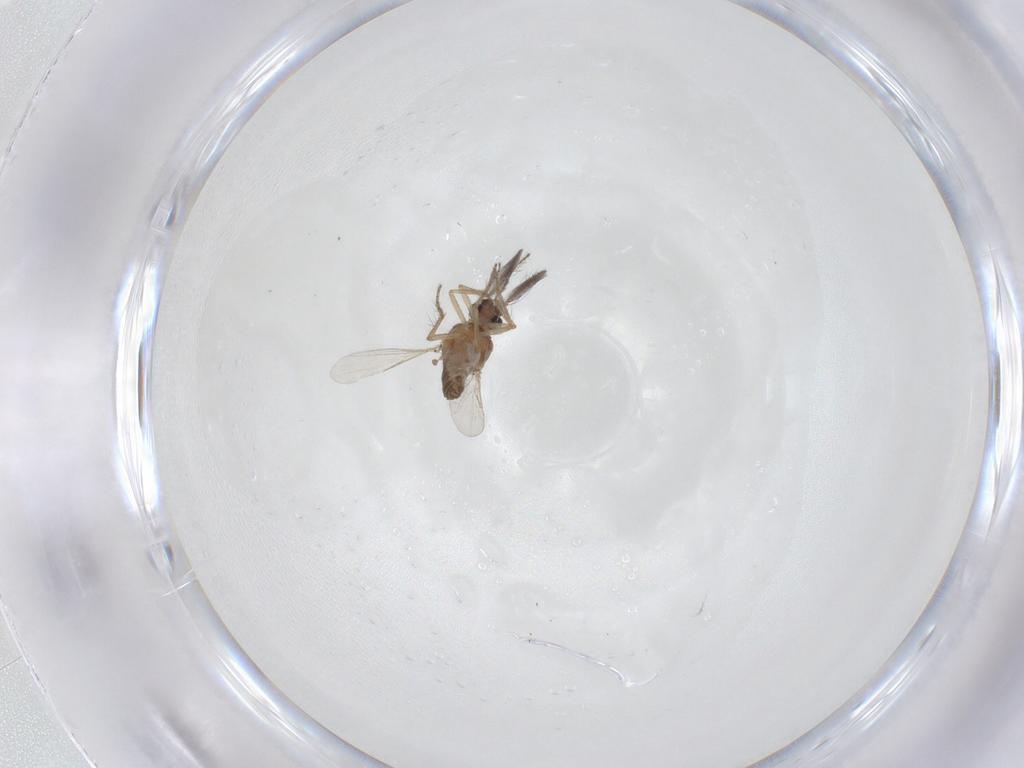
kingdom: Animalia
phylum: Arthropoda
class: Insecta
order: Diptera
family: Ceratopogonidae
